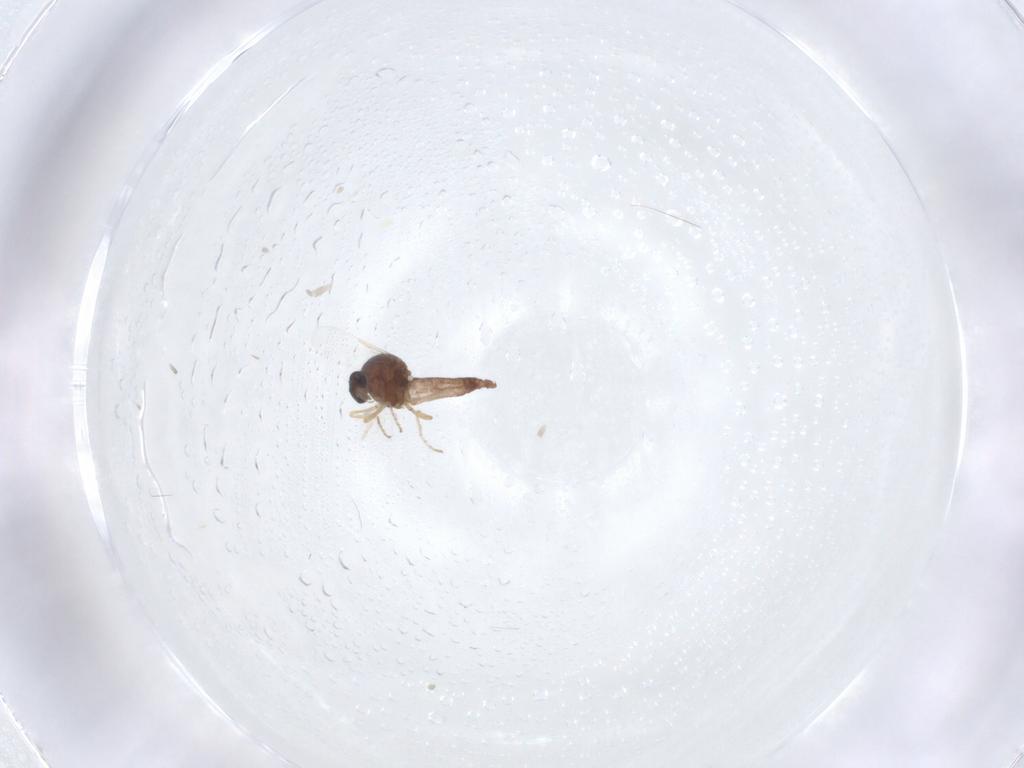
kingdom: Animalia
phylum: Arthropoda
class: Insecta
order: Diptera
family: Ceratopogonidae
